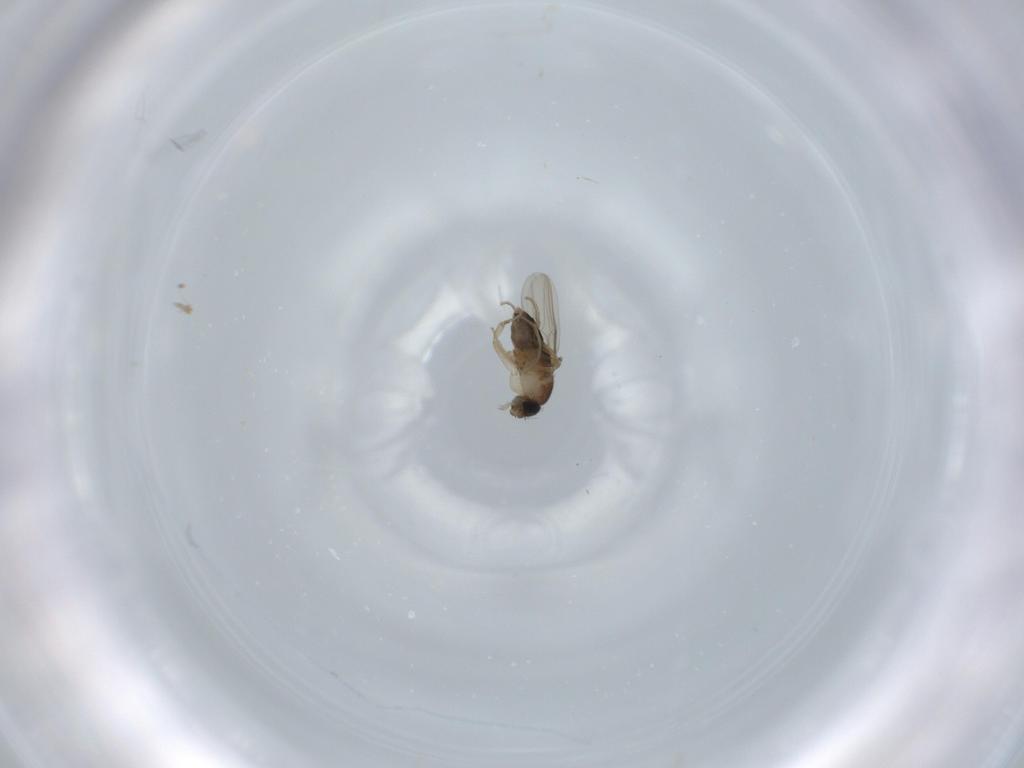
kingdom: Animalia
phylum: Arthropoda
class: Insecta
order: Diptera
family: Phoridae
